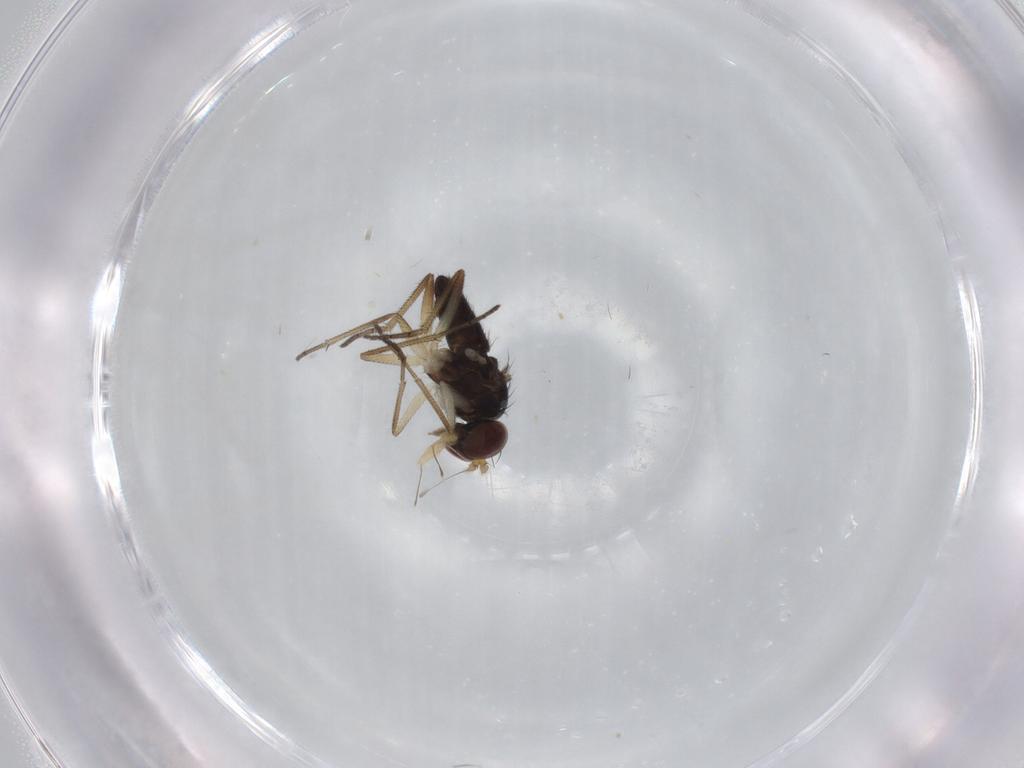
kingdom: Animalia
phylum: Arthropoda
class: Insecta
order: Diptera
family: Dolichopodidae
